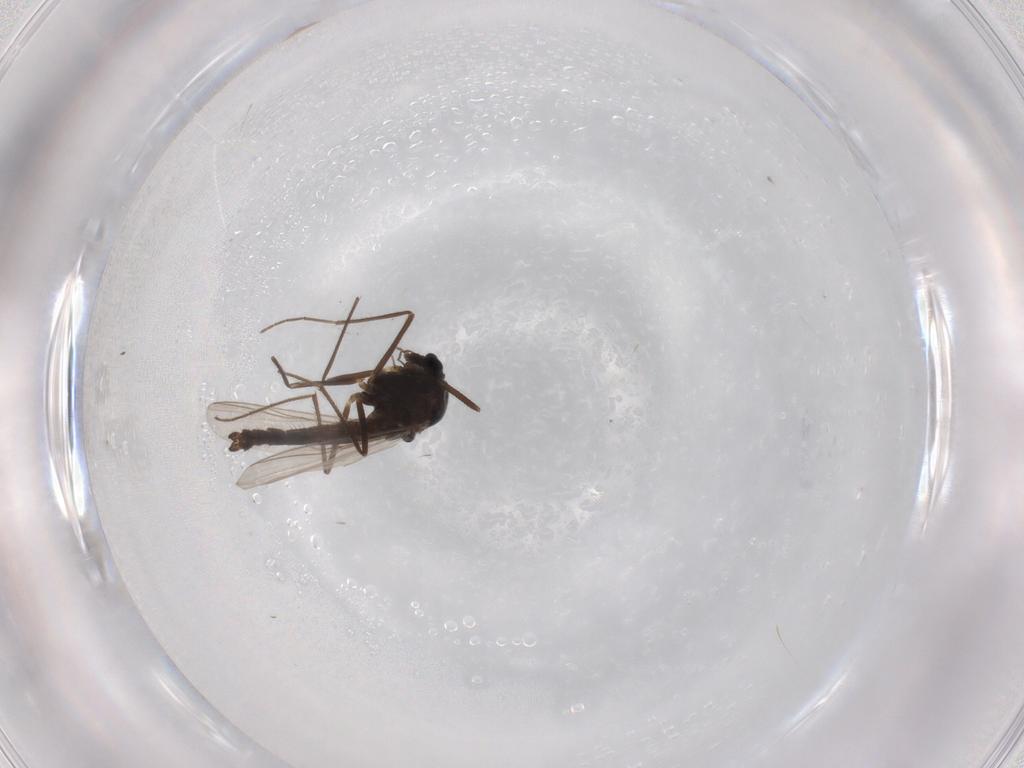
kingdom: Animalia
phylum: Arthropoda
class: Insecta
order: Diptera
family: Chironomidae
